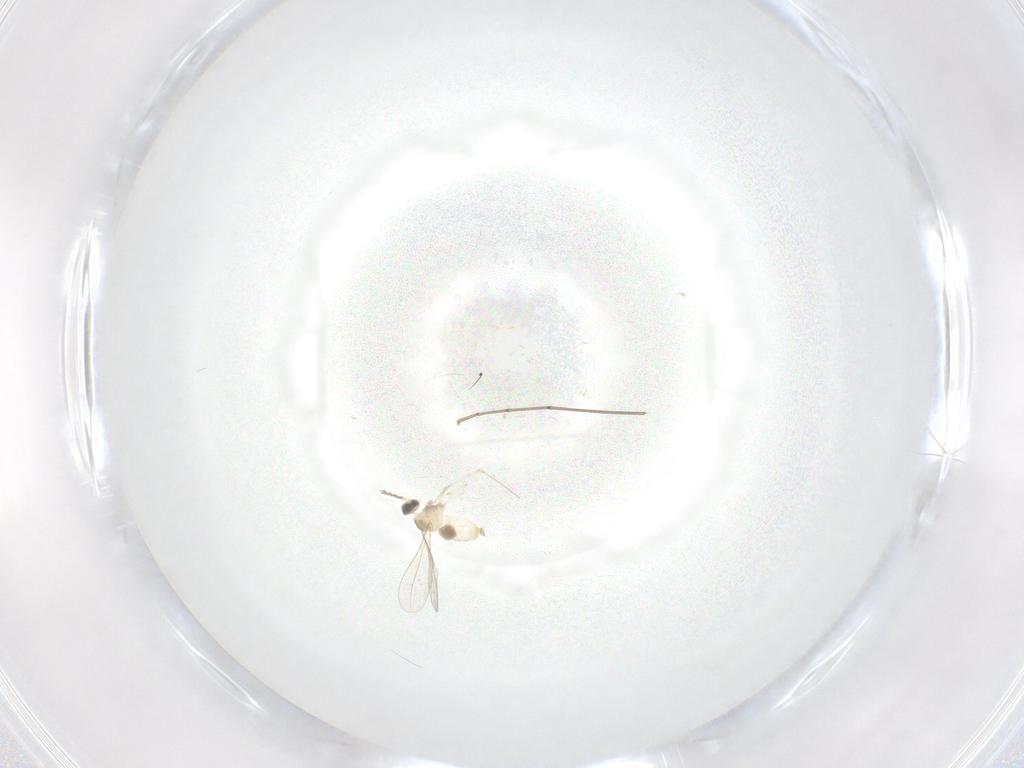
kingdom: Animalia
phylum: Arthropoda
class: Insecta
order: Diptera
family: Cecidomyiidae
